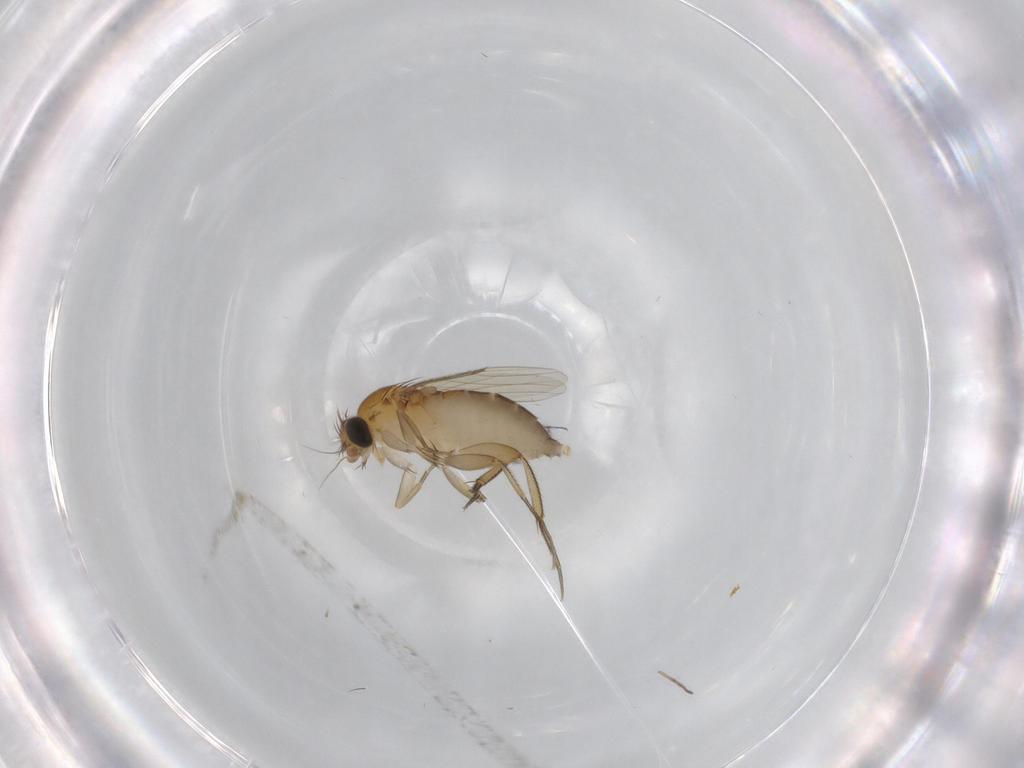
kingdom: Animalia
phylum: Arthropoda
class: Insecta
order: Diptera
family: Phoridae
